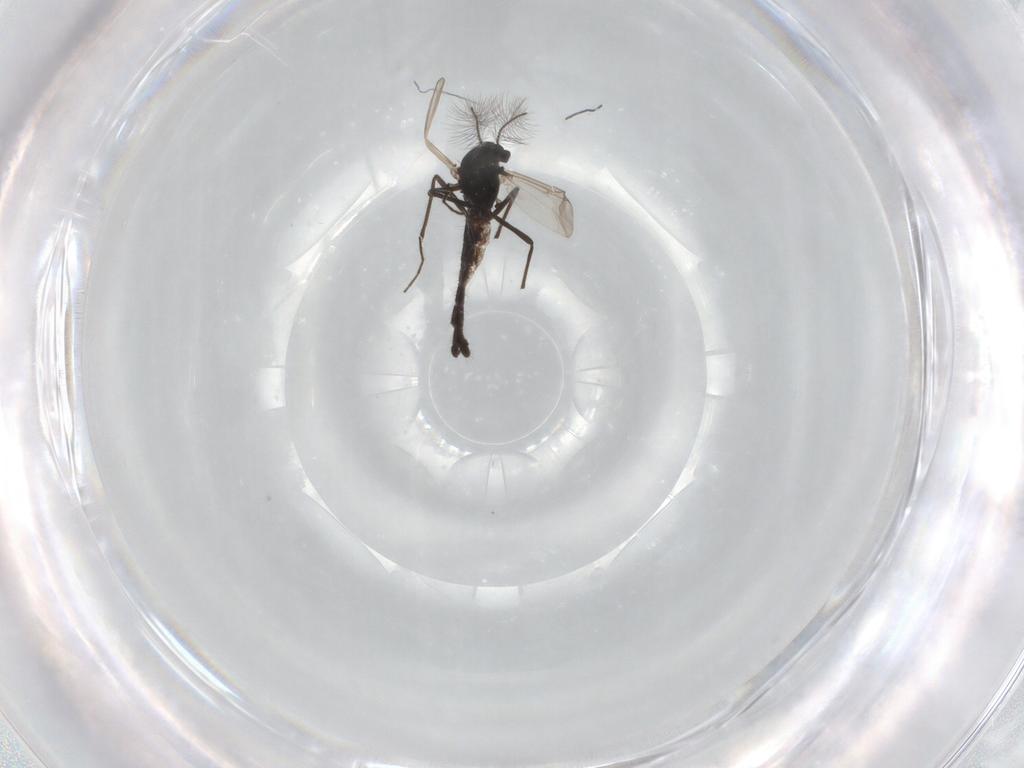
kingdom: Animalia
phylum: Arthropoda
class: Insecta
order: Diptera
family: Chironomidae
